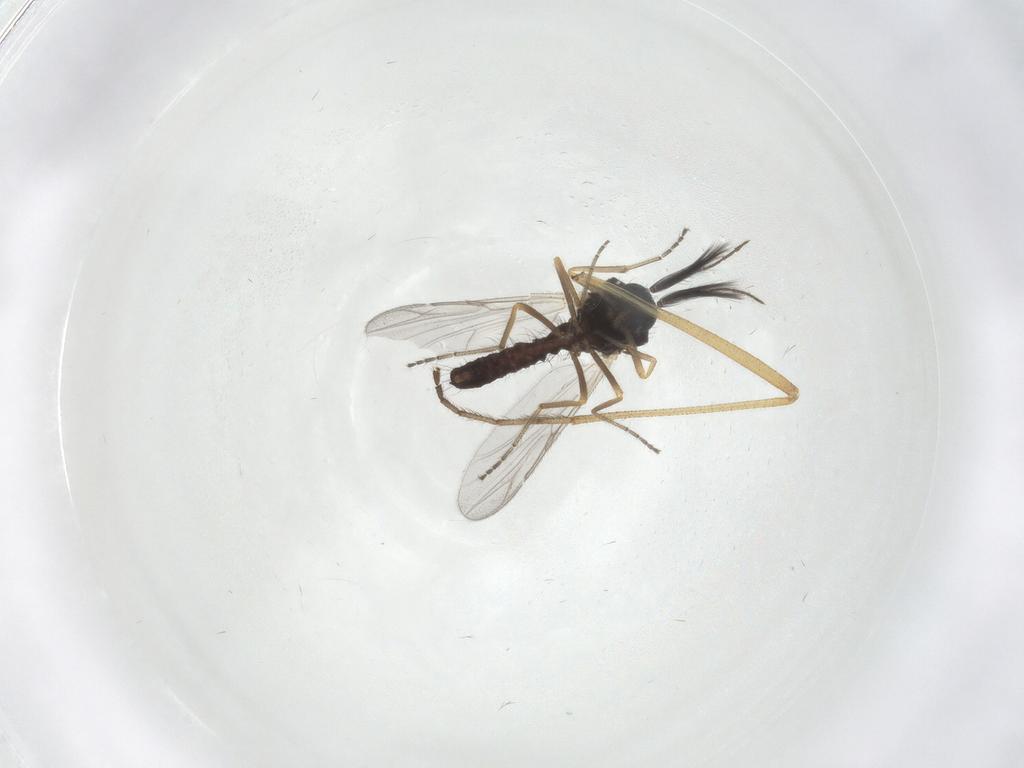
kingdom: Animalia
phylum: Arthropoda
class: Insecta
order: Diptera
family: Ceratopogonidae
